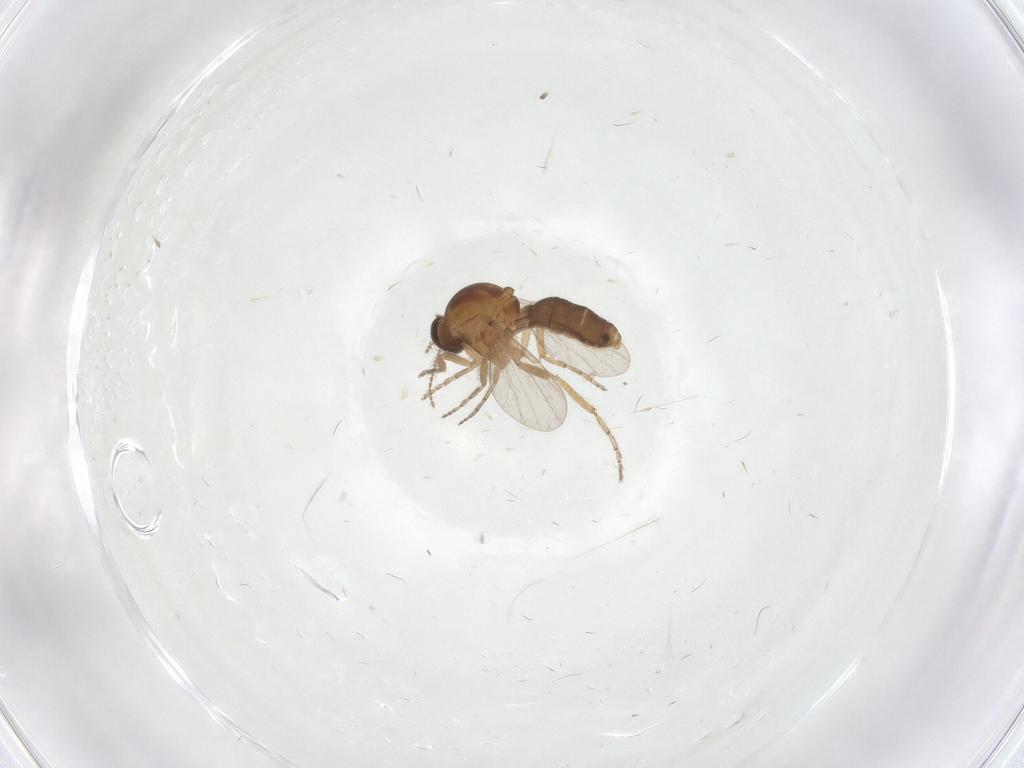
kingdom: Animalia
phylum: Arthropoda
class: Insecta
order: Diptera
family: Ceratopogonidae
